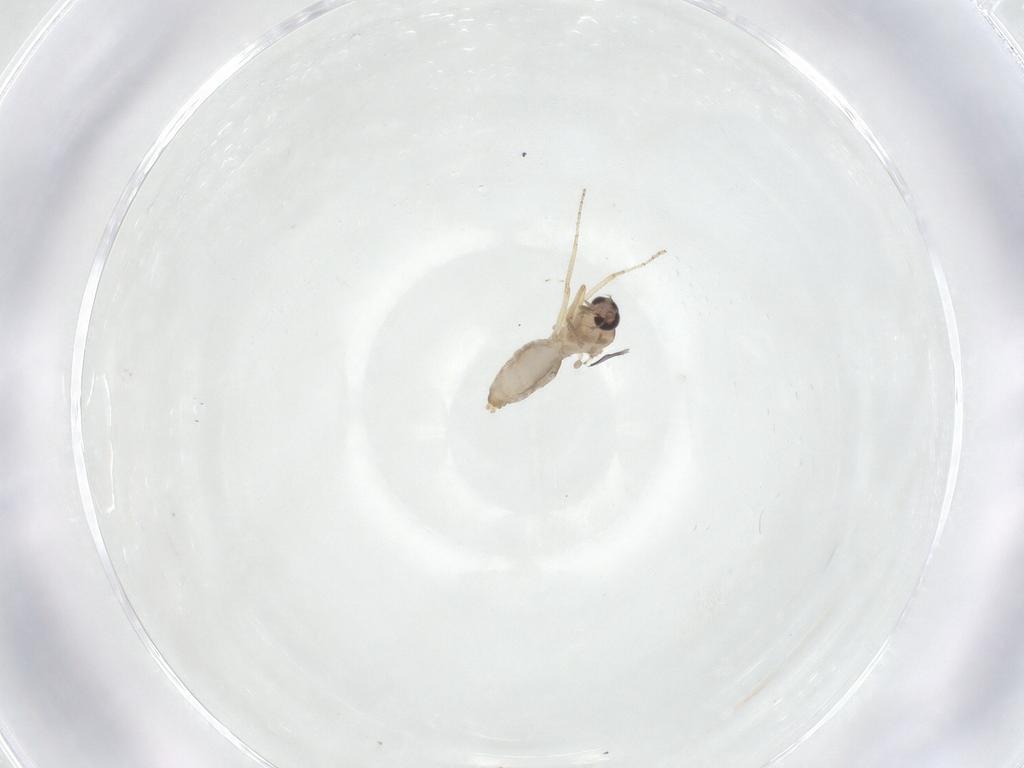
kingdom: Animalia
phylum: Arthropoda
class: Insecta
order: Diptera
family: Ceratopogonidae
